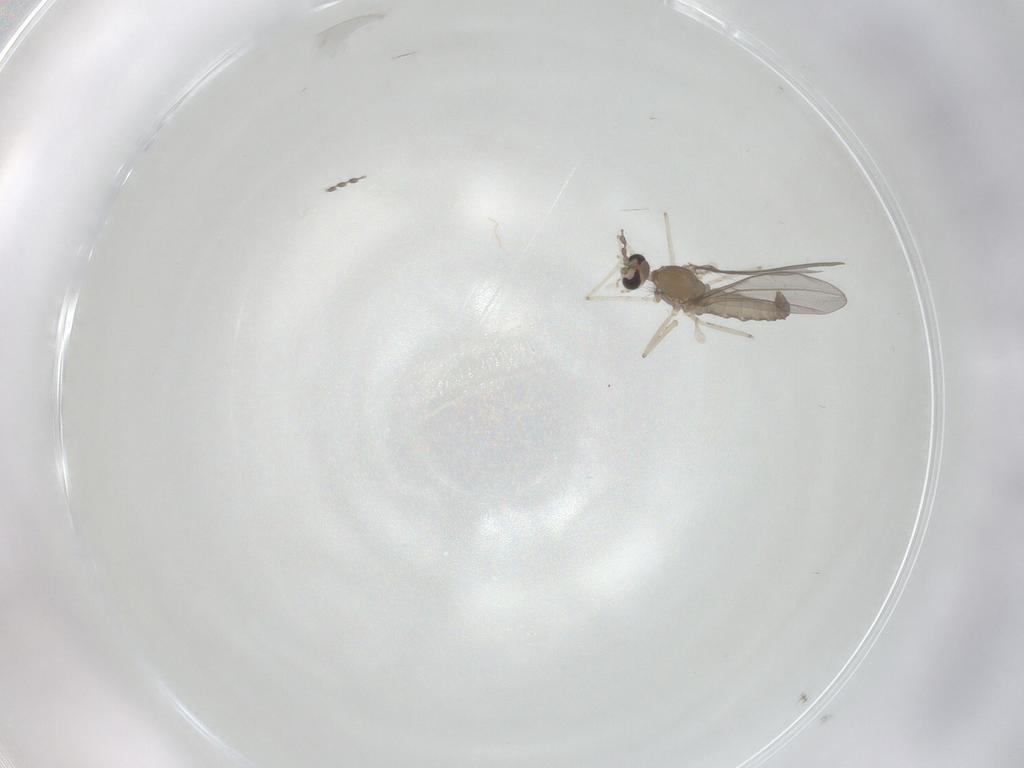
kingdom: Animalia
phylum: Arthropoda
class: Insecta
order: Diptera
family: Cecidomyiidae
